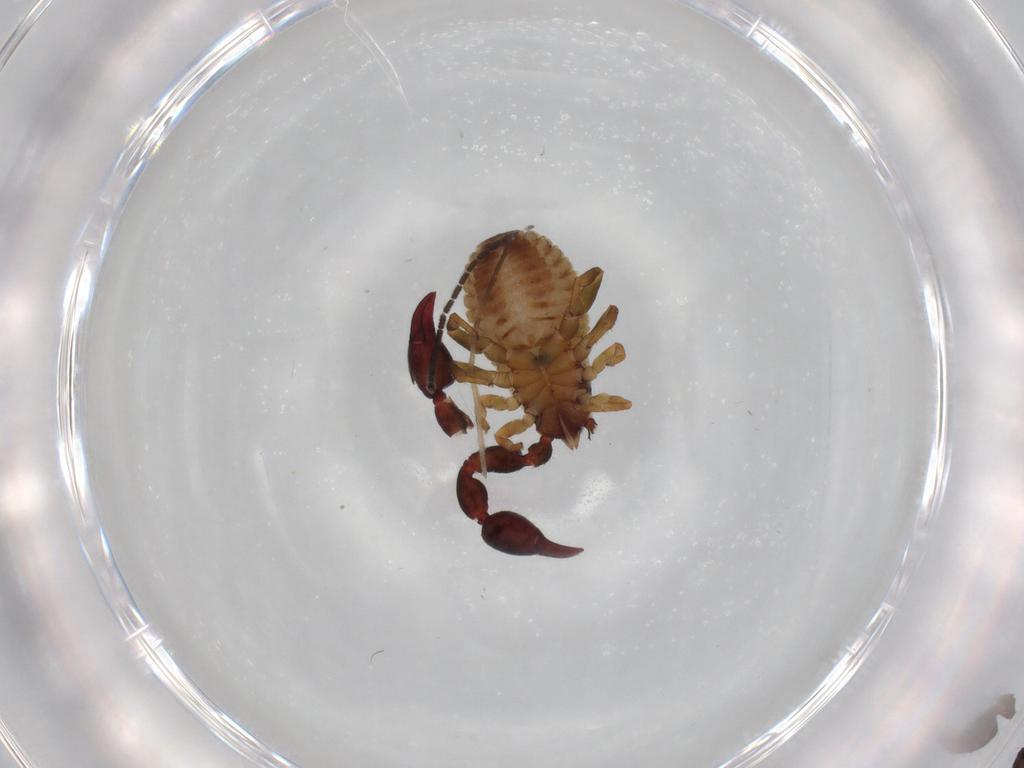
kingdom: Animalia
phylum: Arthropoda
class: Arachnida
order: Pseudoscorpiones
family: Chernetidae
